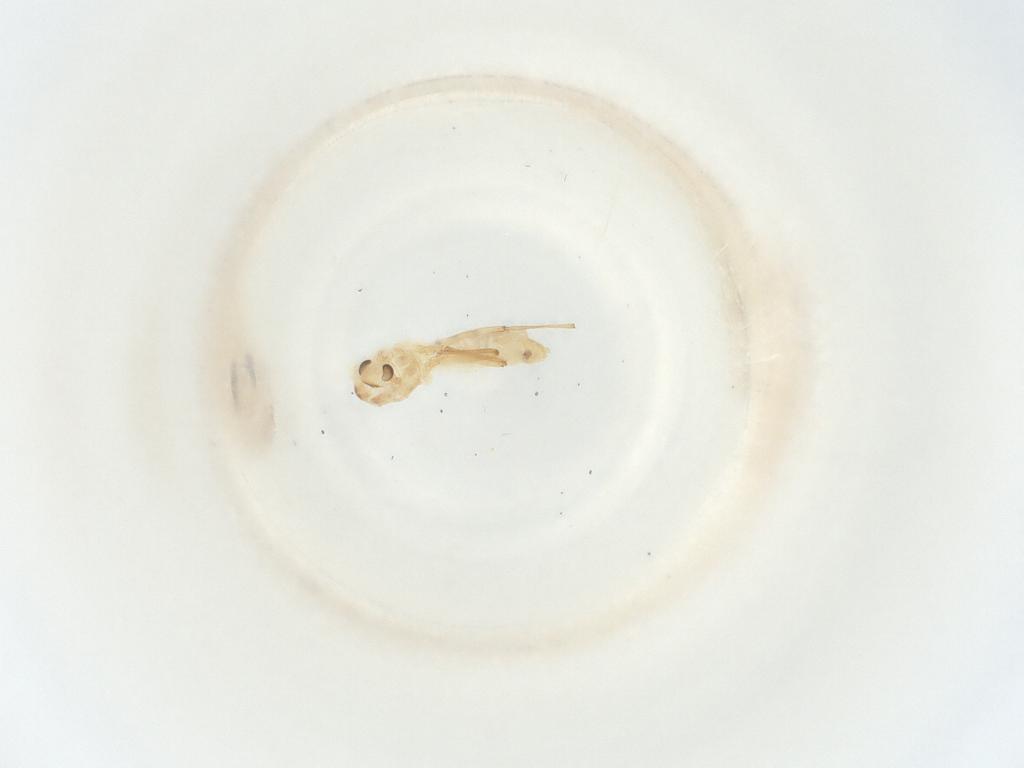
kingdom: Animalia
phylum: Arthropoda
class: Insecta
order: Diptera
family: Chironomidae
